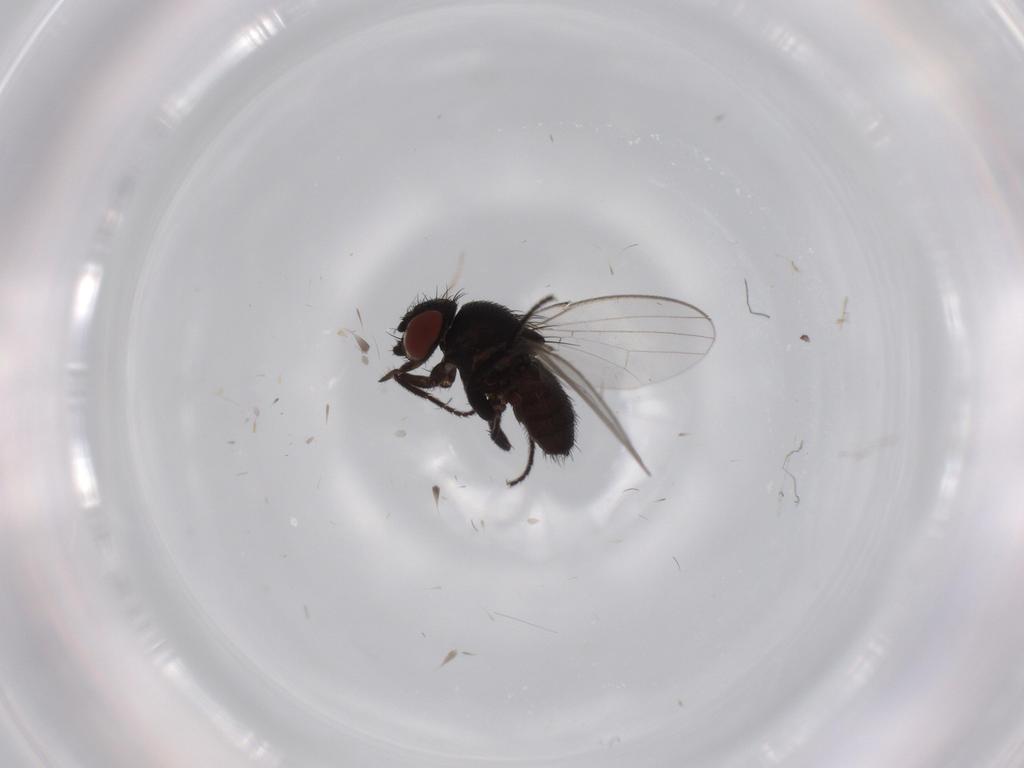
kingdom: Animalia
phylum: Arthropoda
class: Insecta
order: Diptera
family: Milichiidae
